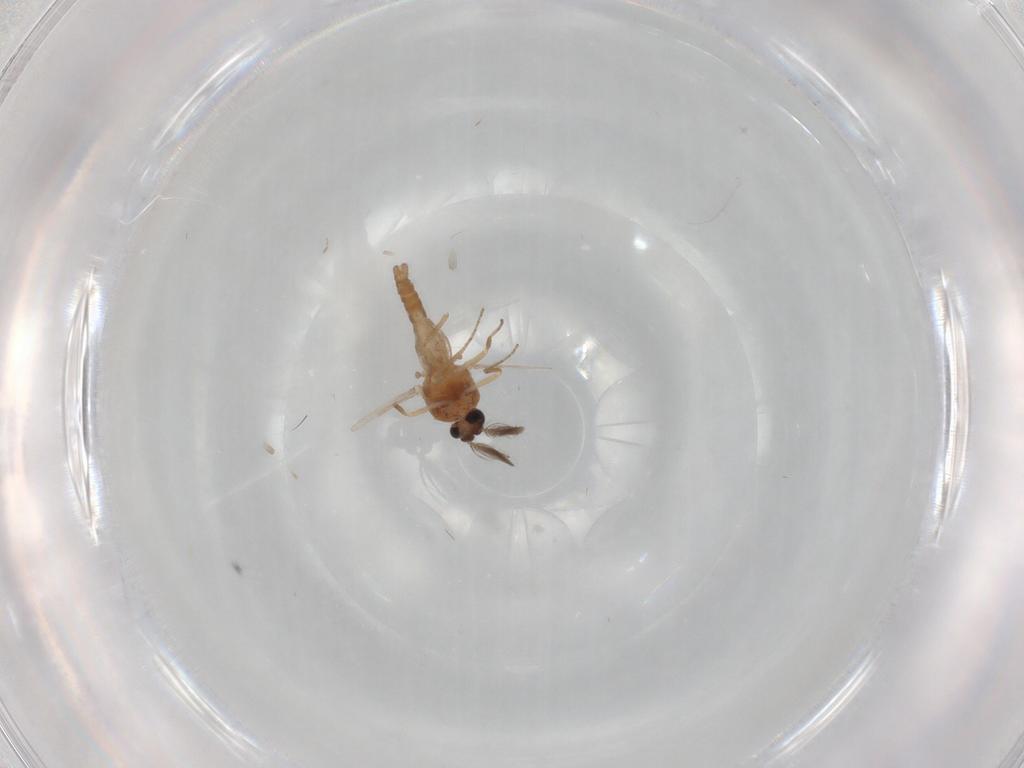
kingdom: Animalia
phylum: Arthropoda
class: Insecta
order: Diptera
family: Ceratopogonidae
